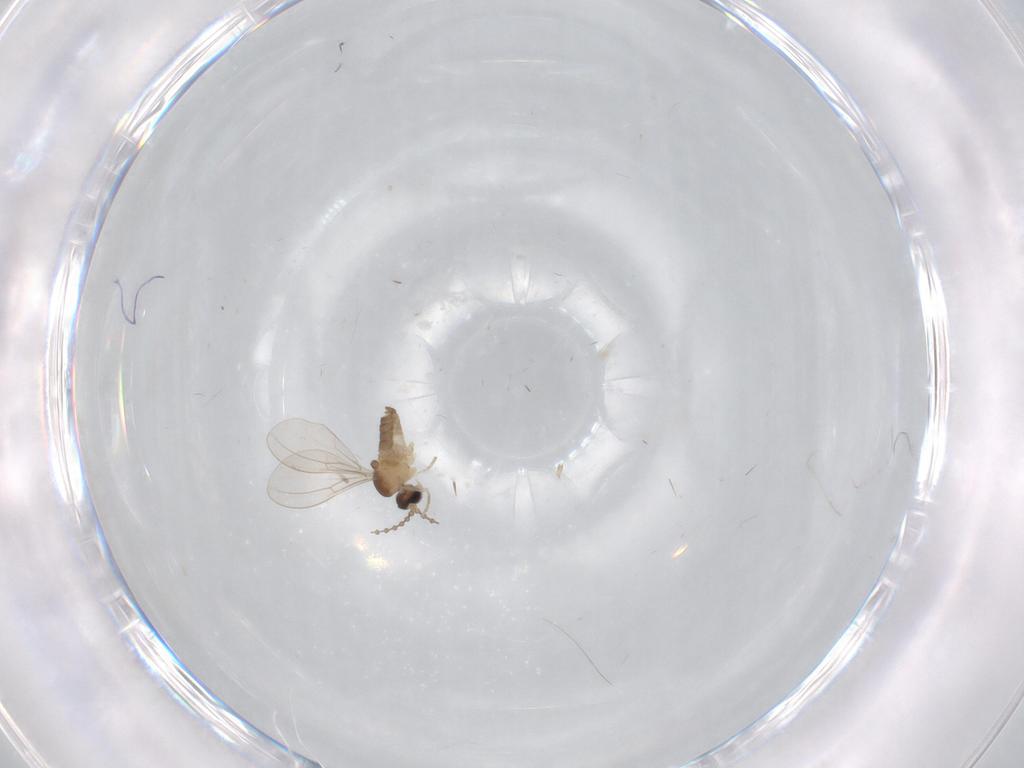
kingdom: Animalia
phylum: Arthropoda
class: Insecta
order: Diptera
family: Cecidomyiidae
